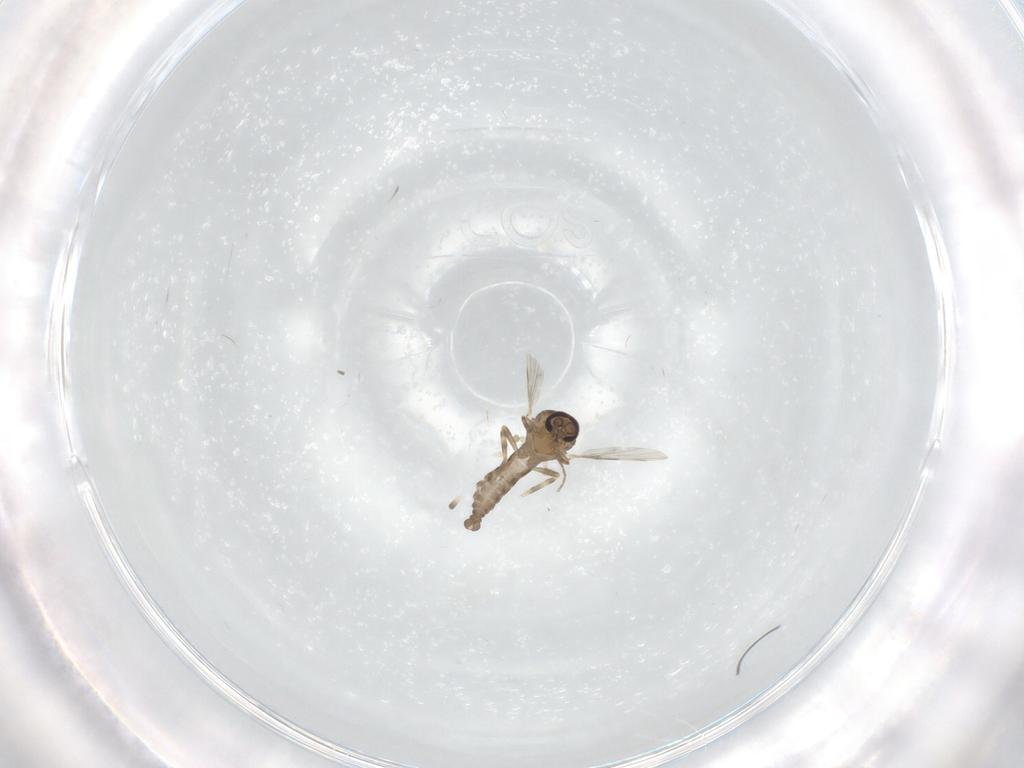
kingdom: Animalia
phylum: Arthropoda
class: Insecta
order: Diptera
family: Ceratopogonidae
